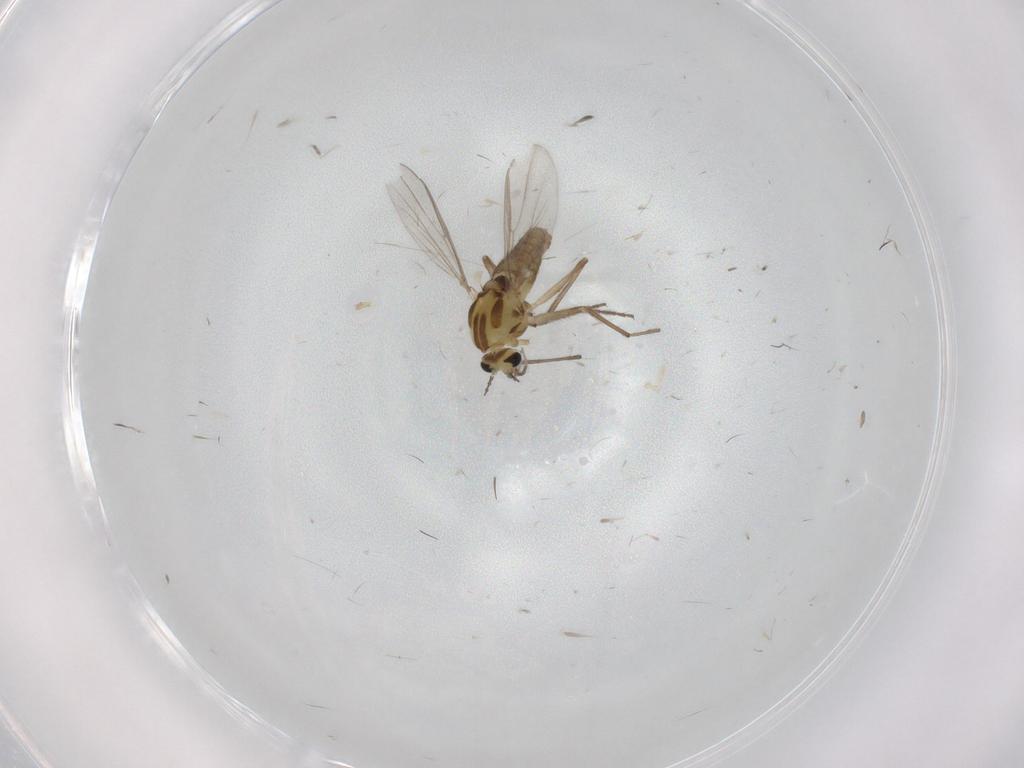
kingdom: Animalia
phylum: Arthropoda
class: Insecta
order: Diptera
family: Chironomidae
